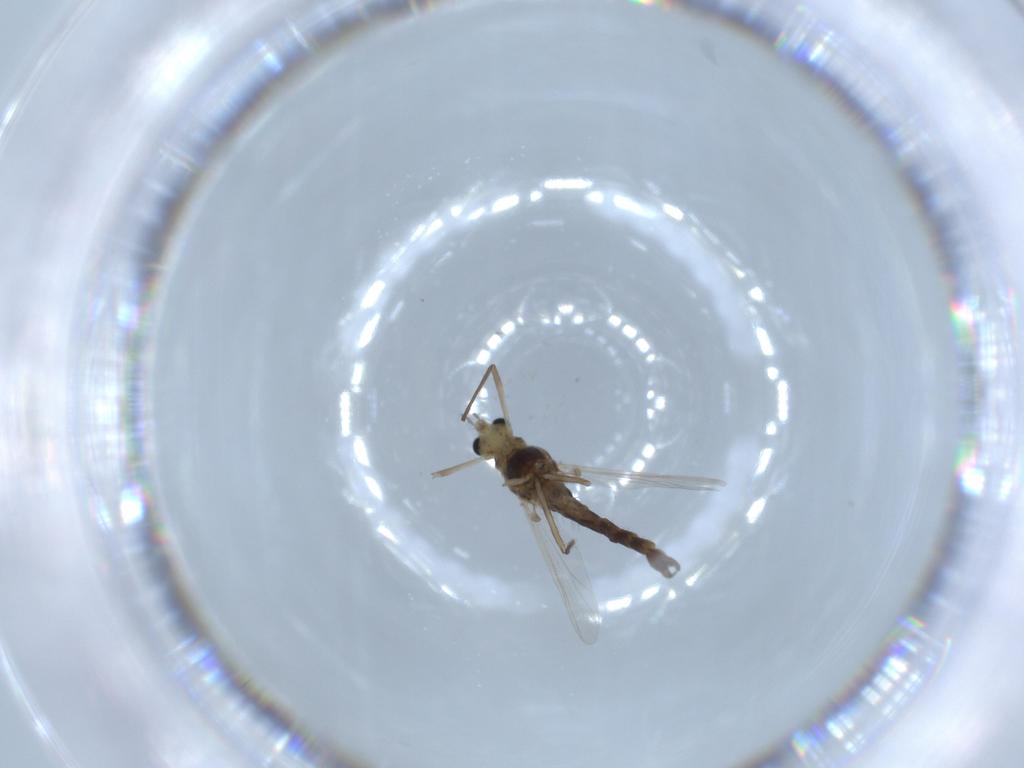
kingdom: Animalia
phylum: Arthropoda
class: Insecta
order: Diptera
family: Chironomidae
